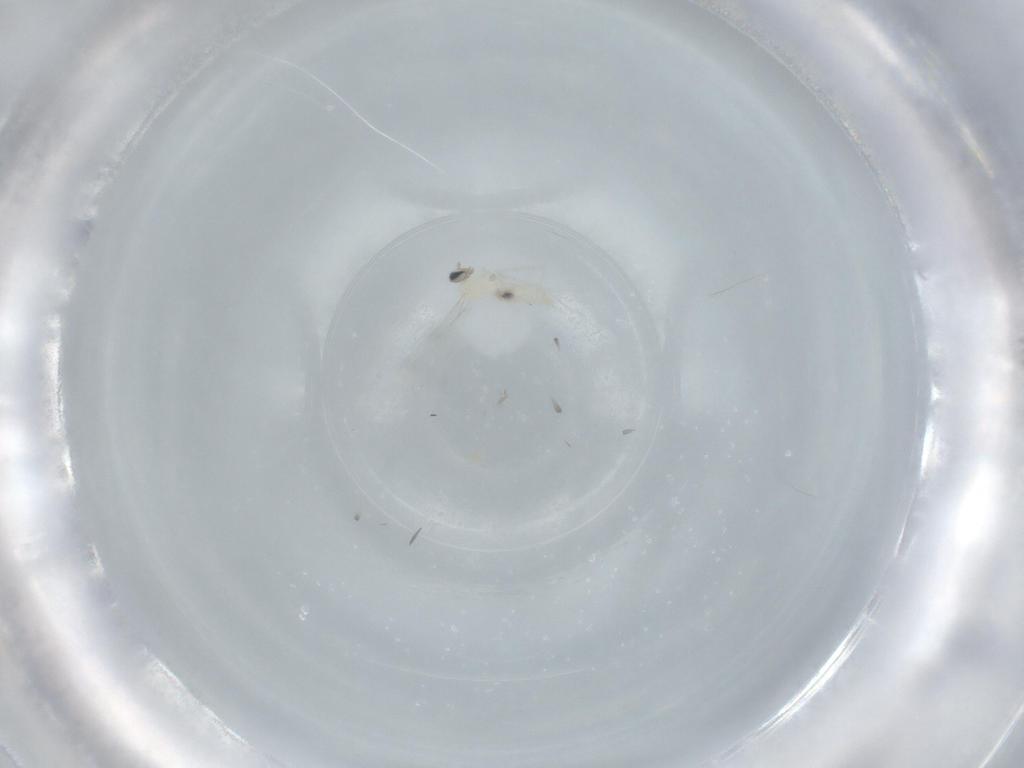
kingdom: Animalia
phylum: Arthropoda
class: Insecta
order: Diptera
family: Cecidomyiidae
